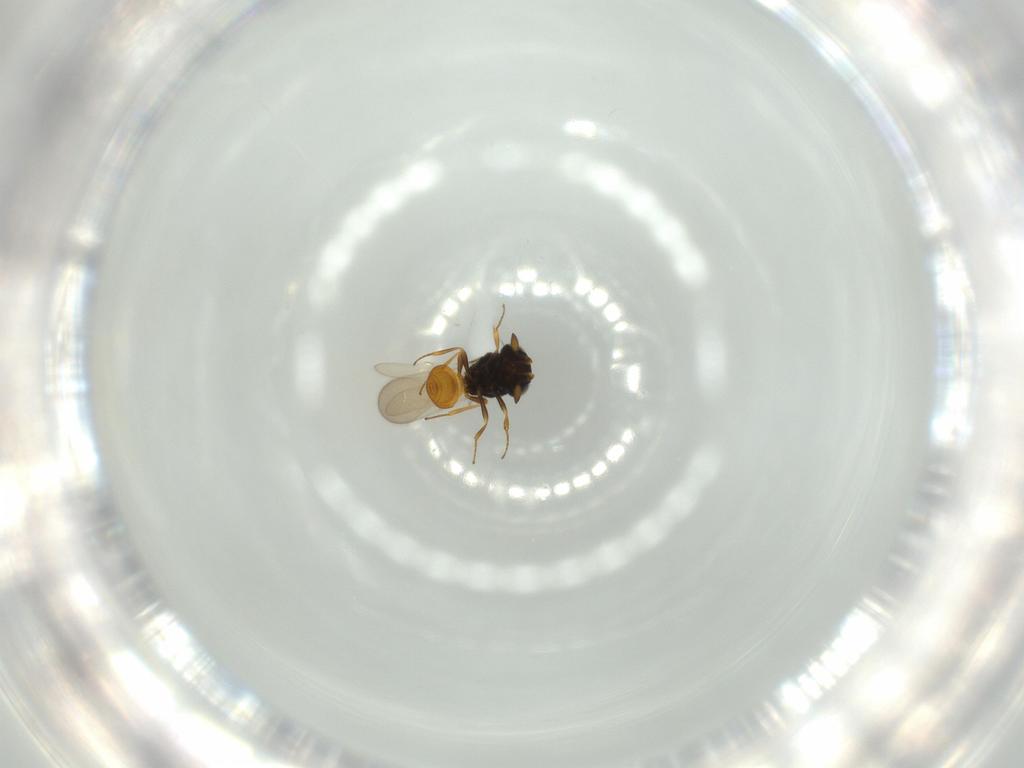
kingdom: Animalia
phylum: Arthropoda
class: Insecta
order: Hymenoptera
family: Scelionidae
